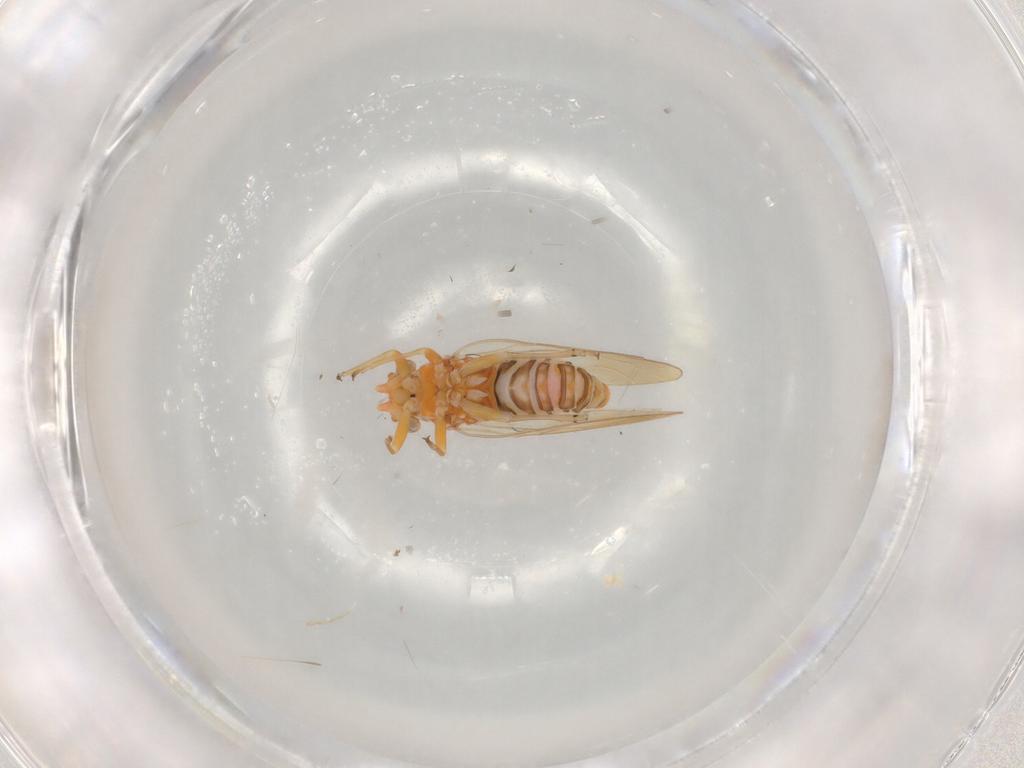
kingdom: Animalia
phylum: Arthropoda
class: Insecta
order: Hemiptera
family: Psyllidae
